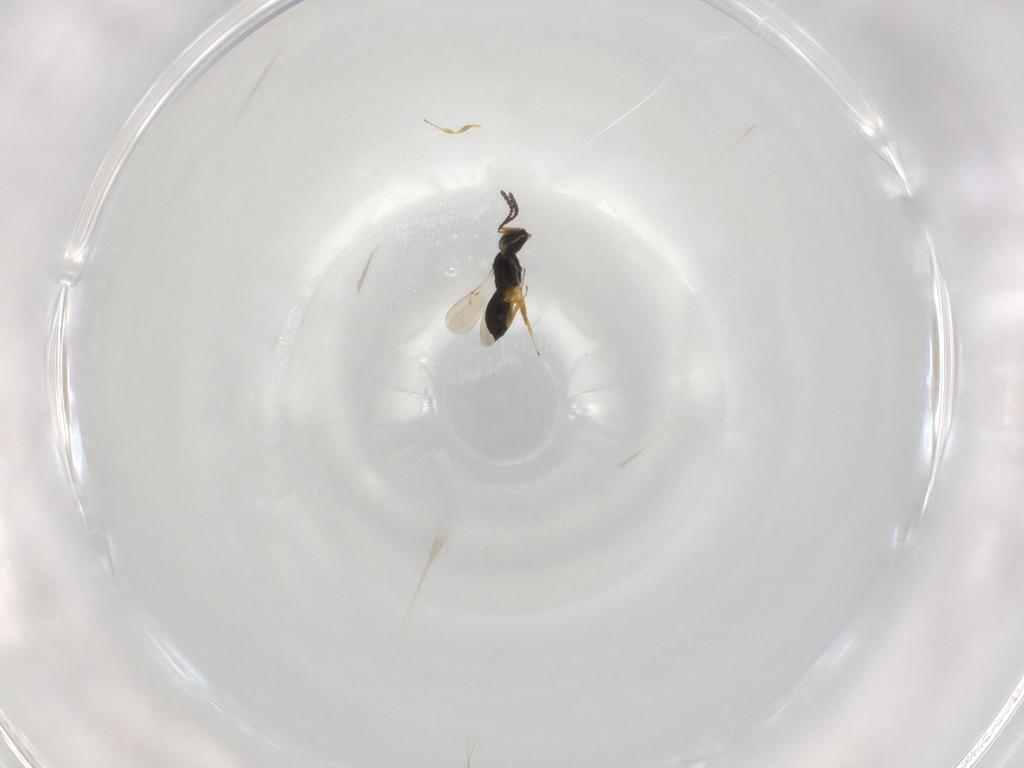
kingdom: Animalia
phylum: Arthropoda
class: Insecta
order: Hymenoptera
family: Scelionidae
